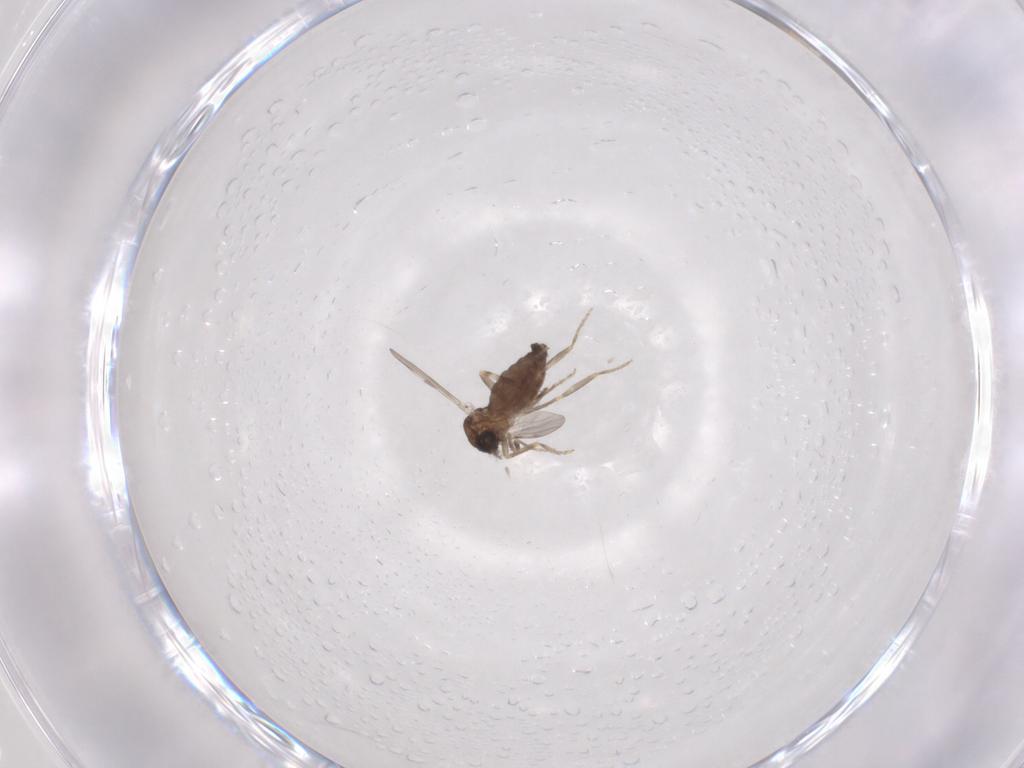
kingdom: Animalia
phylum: Arthropoda
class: Insecta
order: Diptera
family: Ceratopogonidae
